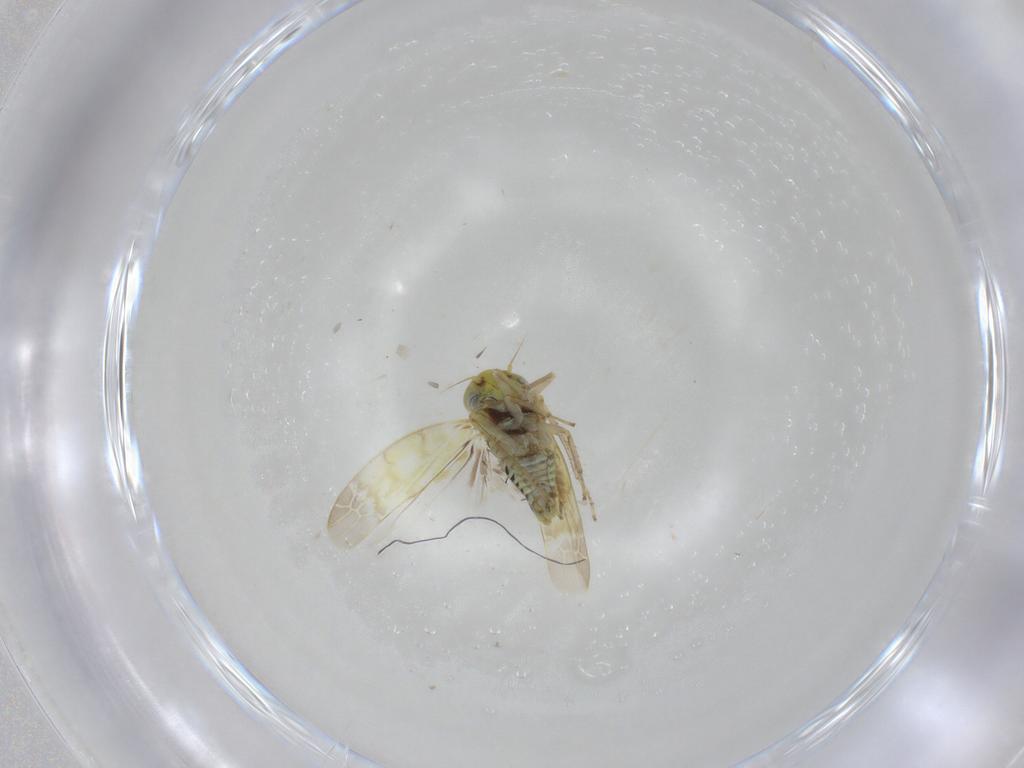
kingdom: Animalia
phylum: Arthropoda
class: Insecta
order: Hemiptera
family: Cicadellidae
